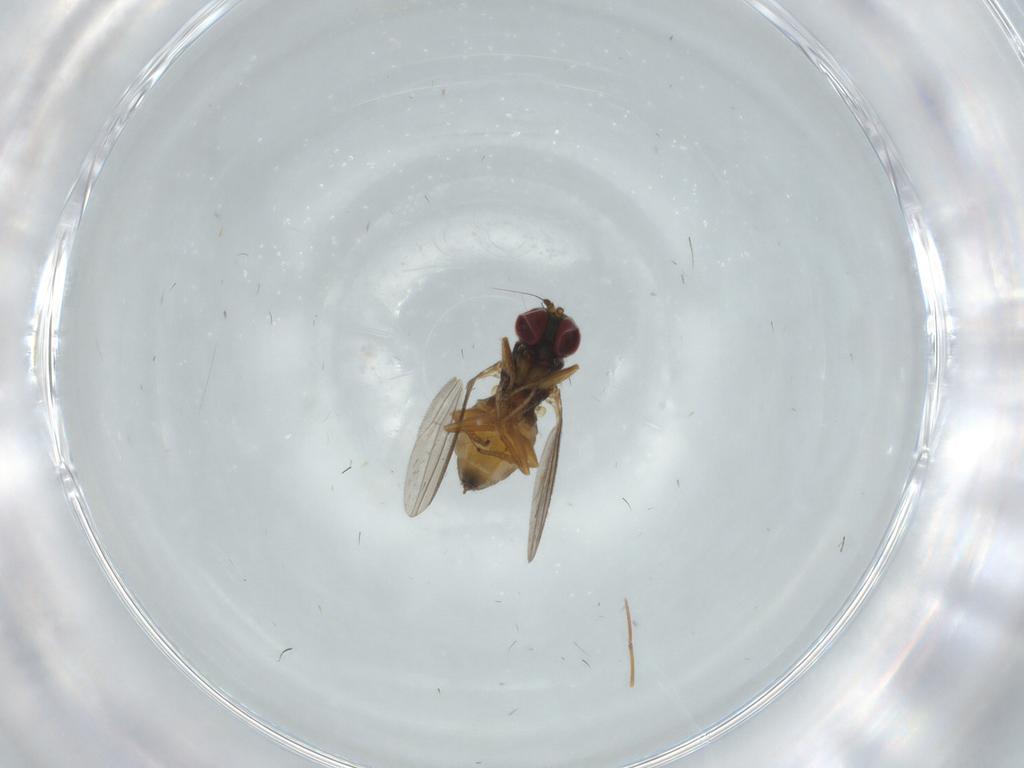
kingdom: Animalia
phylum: Arthropoda
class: Insecta
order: Diptera
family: Dolichopodidae
